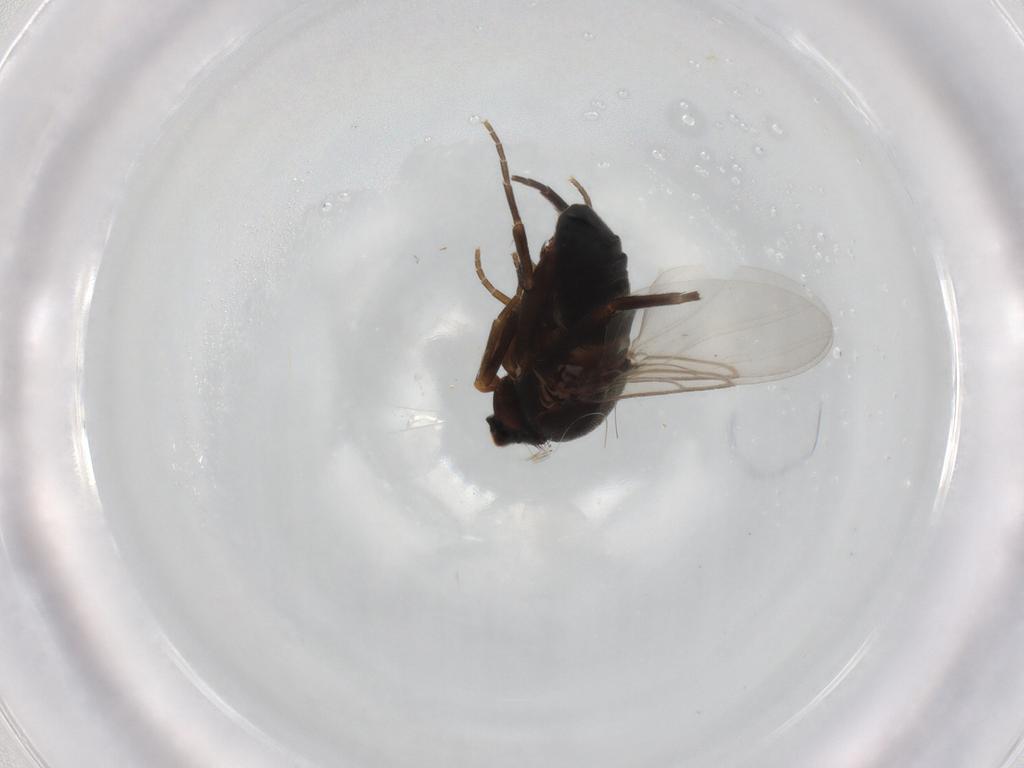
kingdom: Animalia
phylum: Arthropoda
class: Insecta
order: Diptera
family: Phoridae
